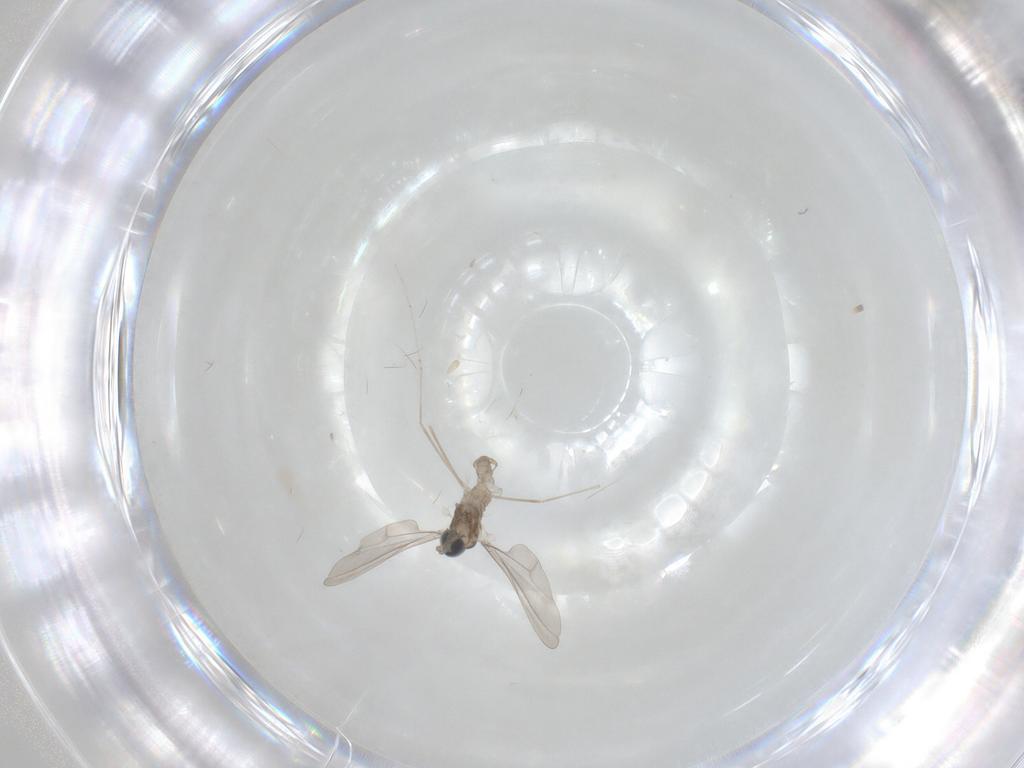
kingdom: Animalia
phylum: Arthropoda
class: Insecta
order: Diptera
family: Cecidomyiidae
